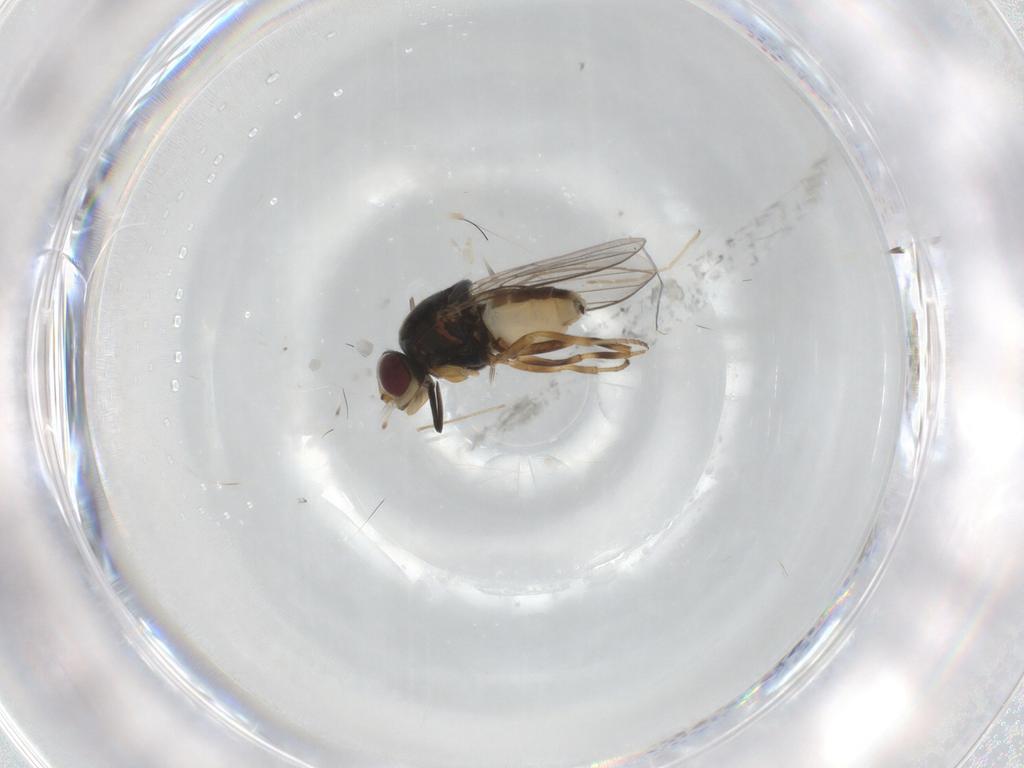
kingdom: Animalia
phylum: Arthropoda
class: Insecta
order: Diptera
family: Chloropidae
